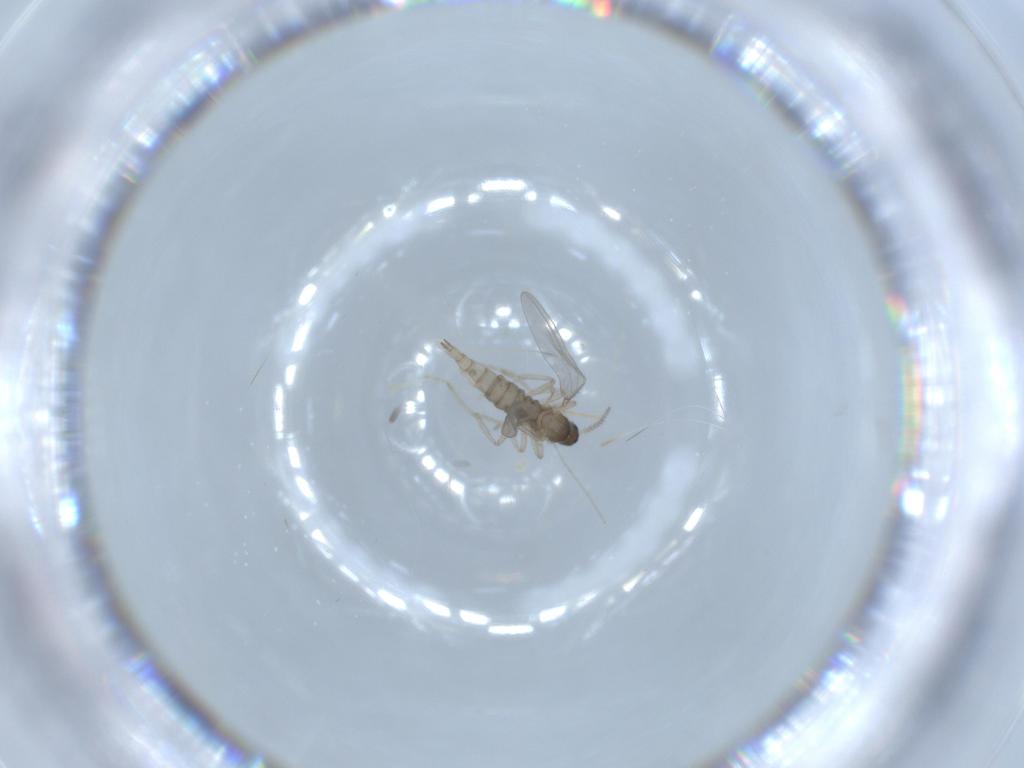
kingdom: Animalia
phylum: Arthropoda
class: Insecta
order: Diptera
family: Cecidomyiidae
